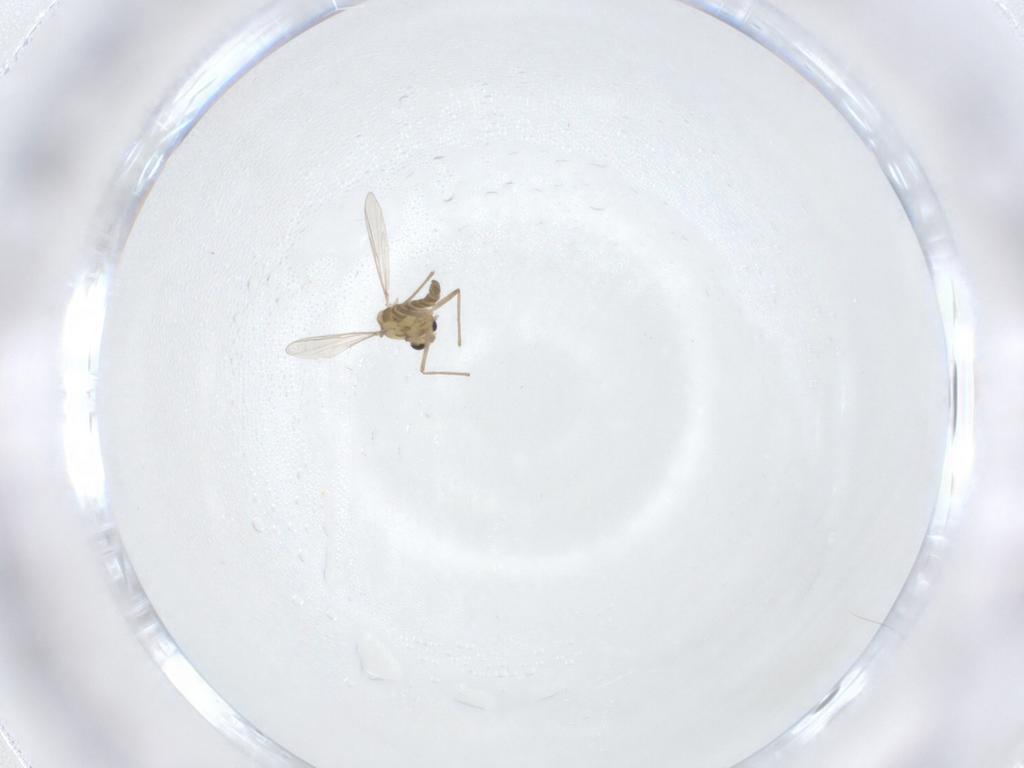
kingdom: Animalia
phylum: Arthropoda
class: Insecta
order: Diptera
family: Chironomidae
